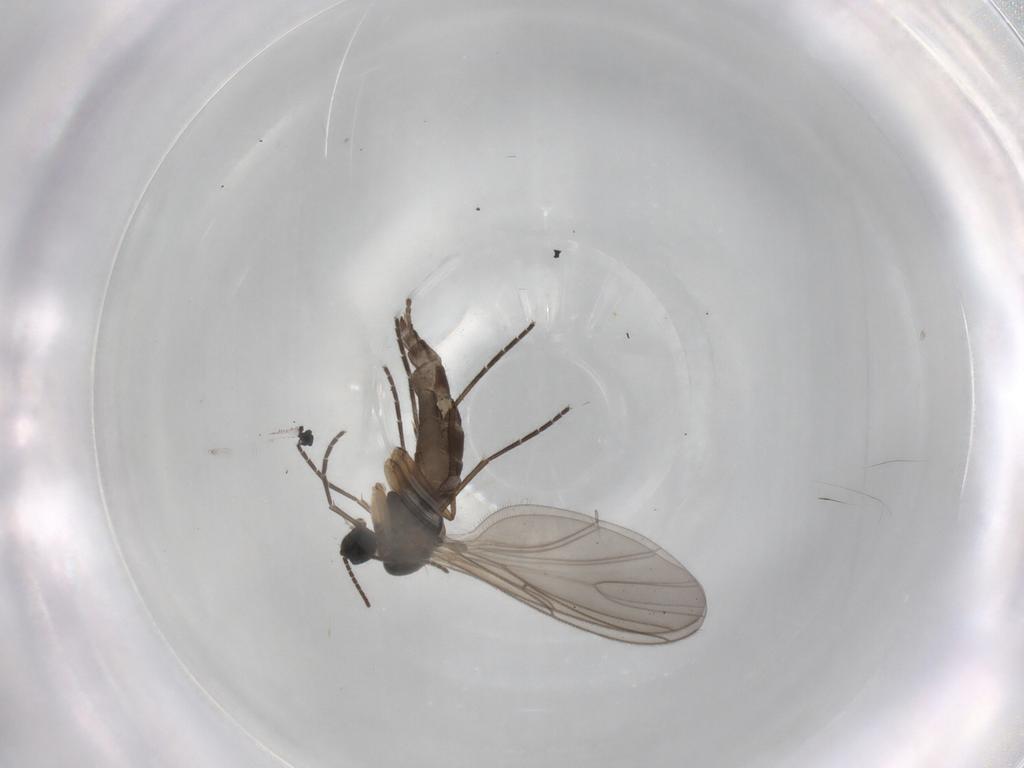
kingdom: Animalia
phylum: Arthropoda
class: Insecta
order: Diptera
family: Sciaridae
